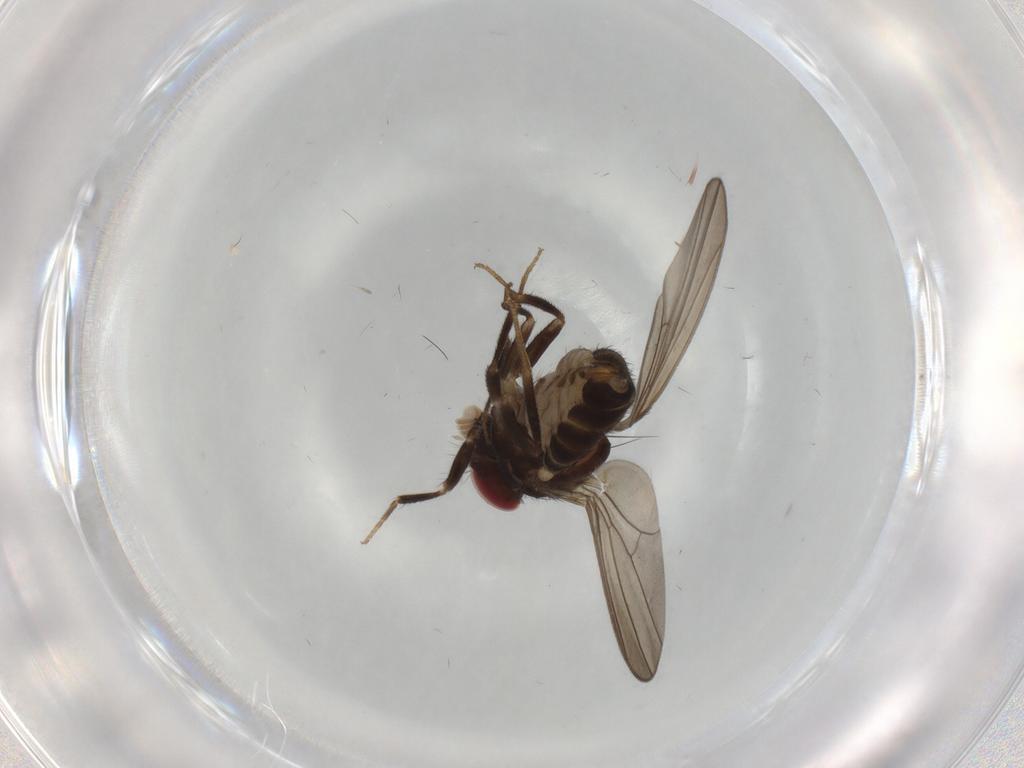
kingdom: Animalia
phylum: Arthropoda
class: Insecta
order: Diptera
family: Drosophilidae
